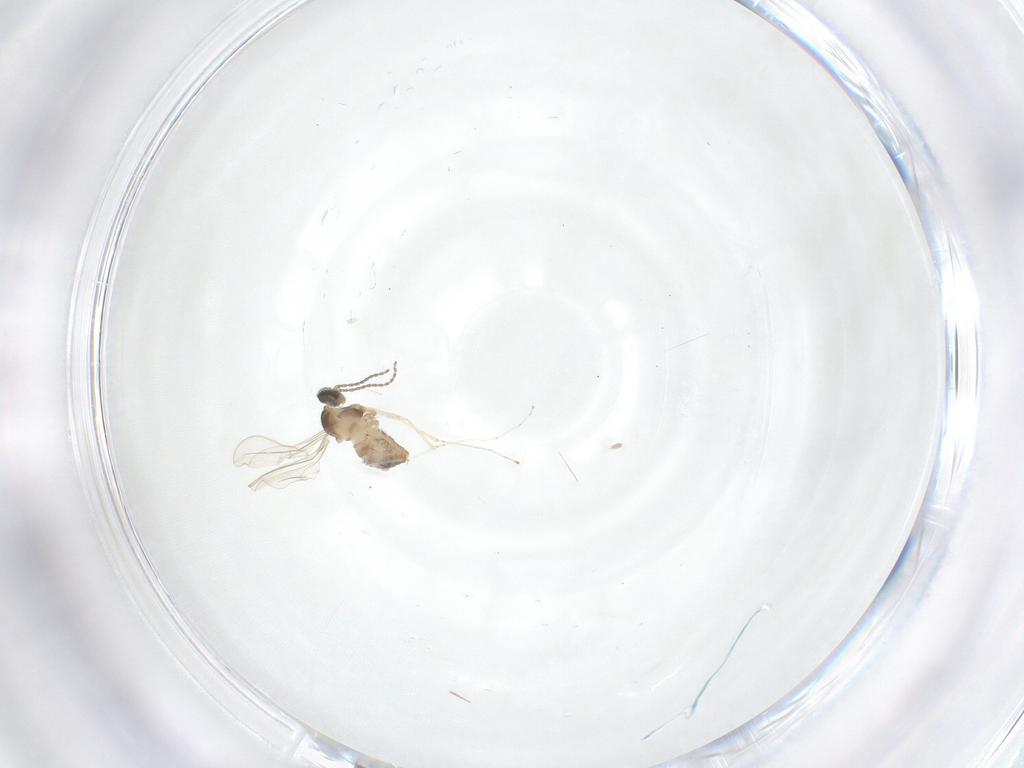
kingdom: Animalia
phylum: Arthropoda
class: Insecta
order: Diptera
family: Cecidomyiidae
